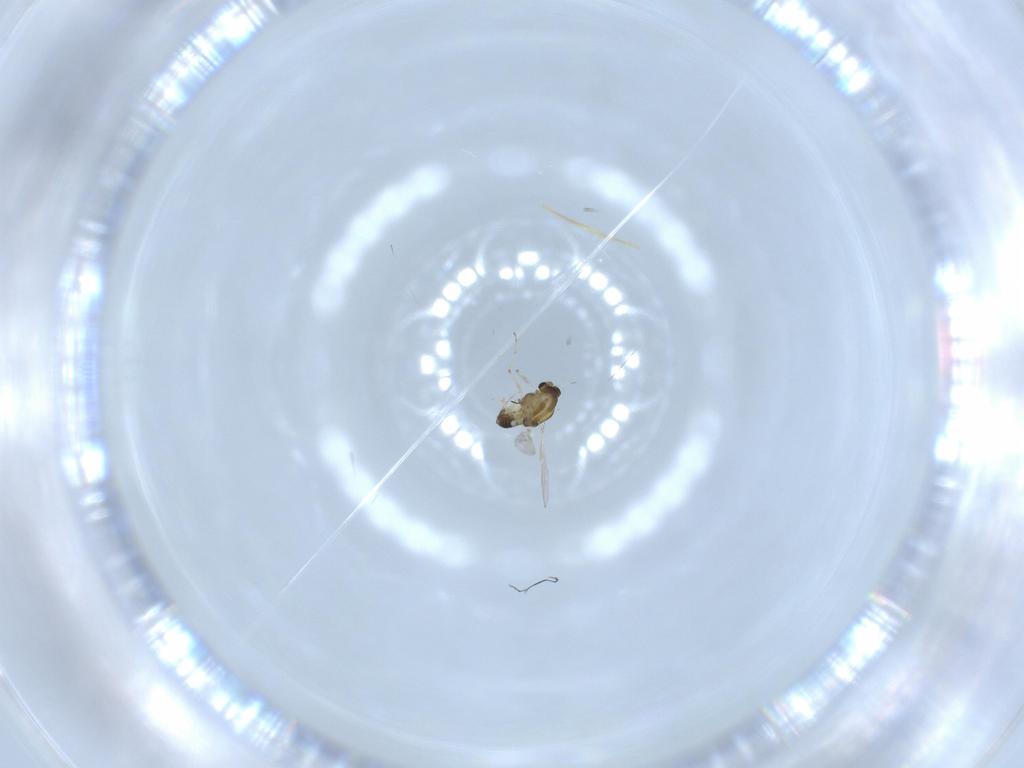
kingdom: Animalia
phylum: Arthropoda
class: Insecta
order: Diptera
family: Chironomidae
